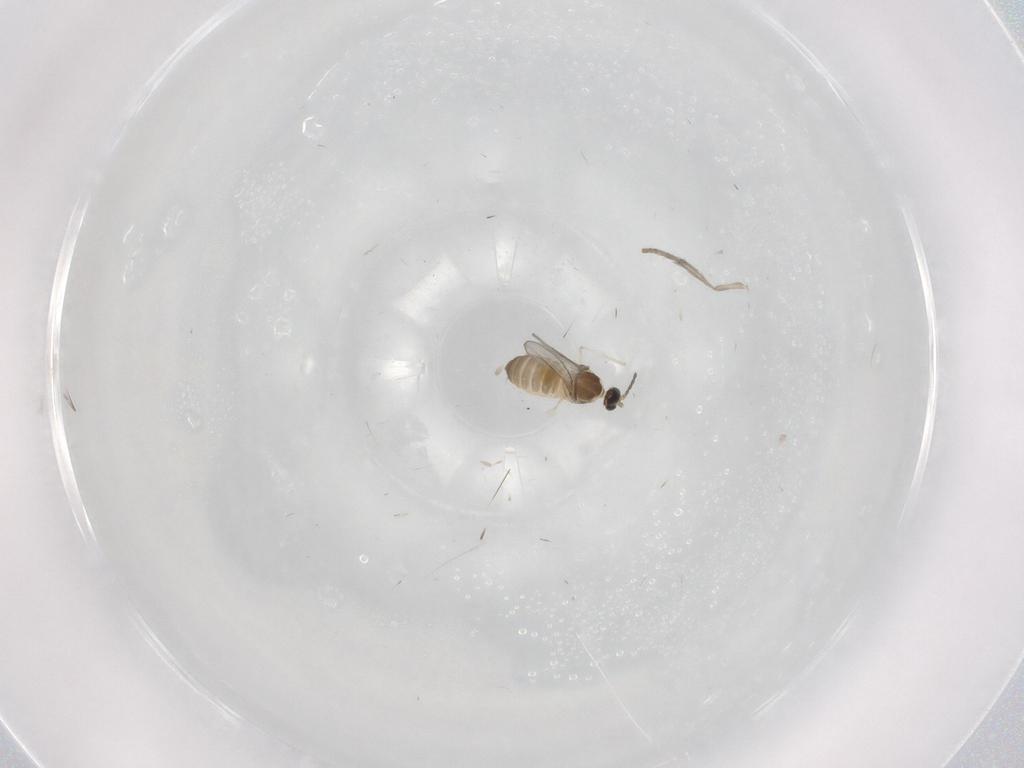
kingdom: Animalia
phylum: Arthropoda
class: Insecta
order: Diptera
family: Cecidomyiidae
